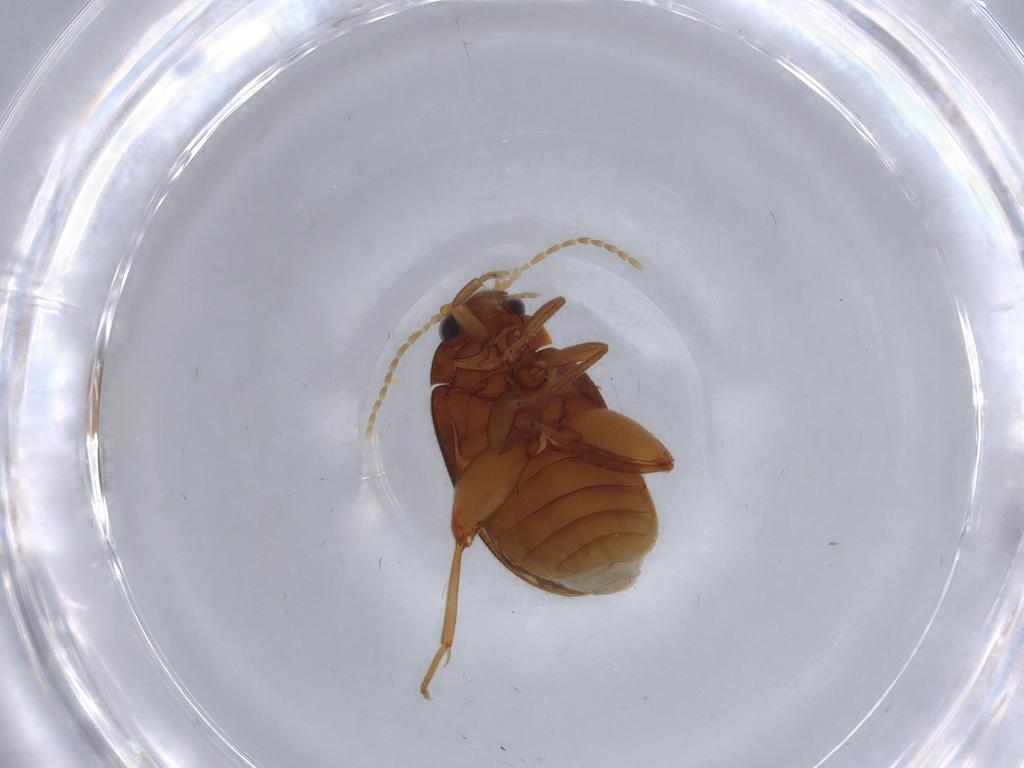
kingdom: Animalia
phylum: Arthropoda
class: Insecta
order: Coleoptera
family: Scirtidae
